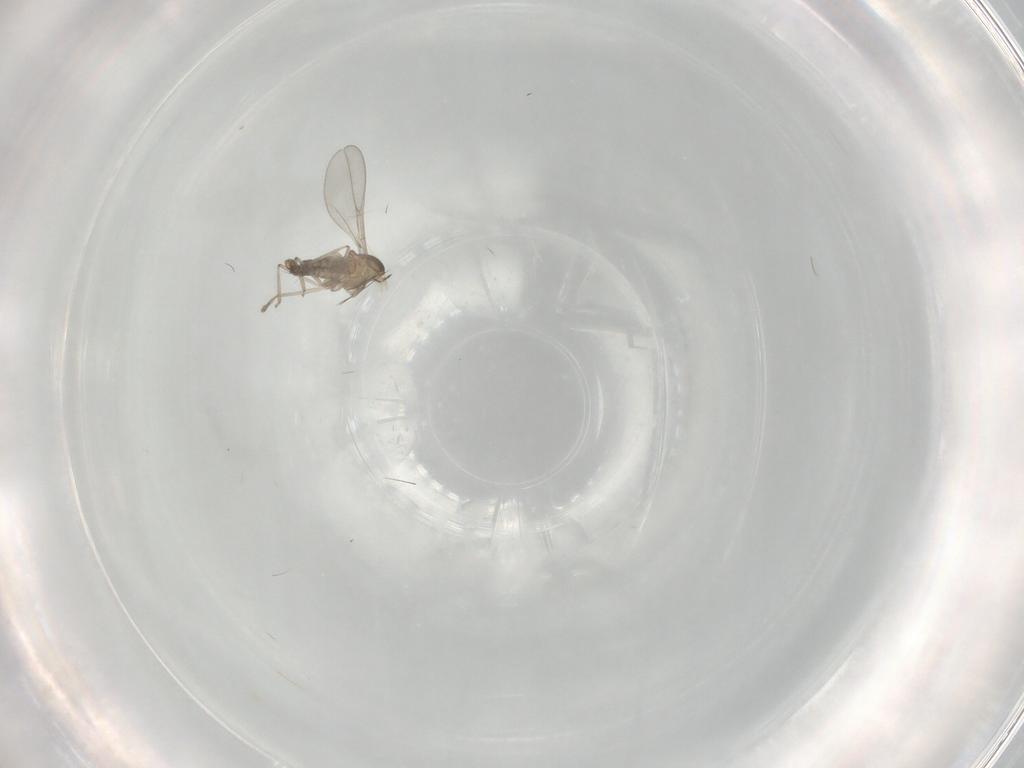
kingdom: Animalia
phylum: Arthropoda
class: Insecta
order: Diptera
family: Cecidomyiidae
